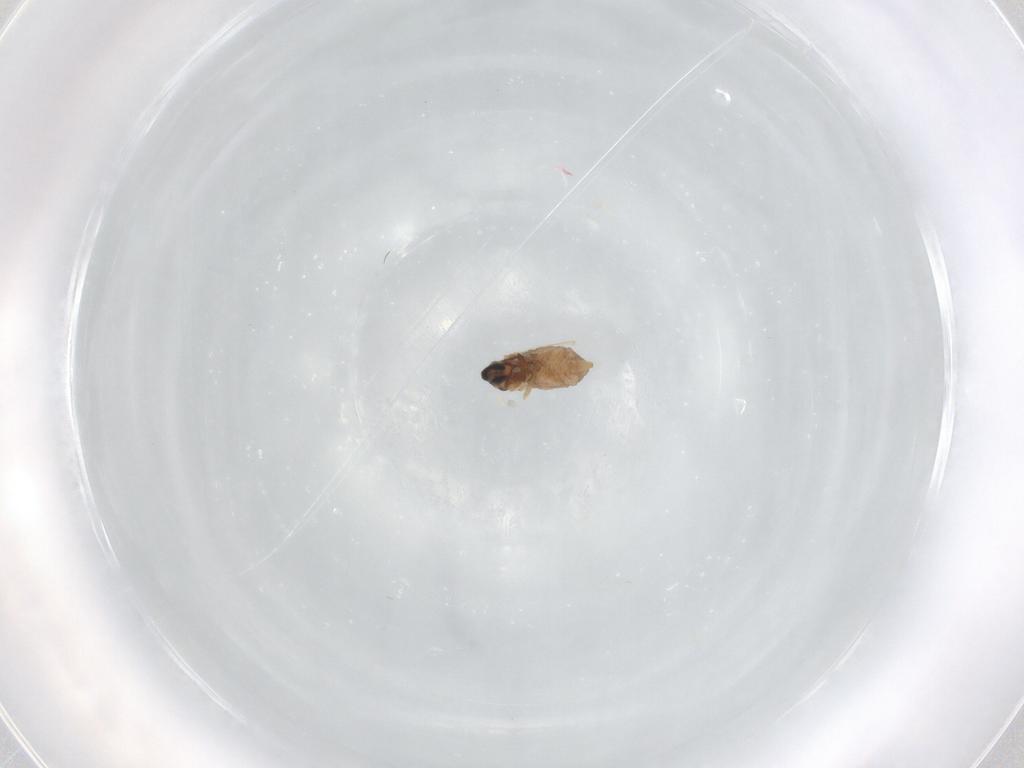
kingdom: Animalia
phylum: Arthropoda
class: Insecta
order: Diptera
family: Cecidomyiidae
